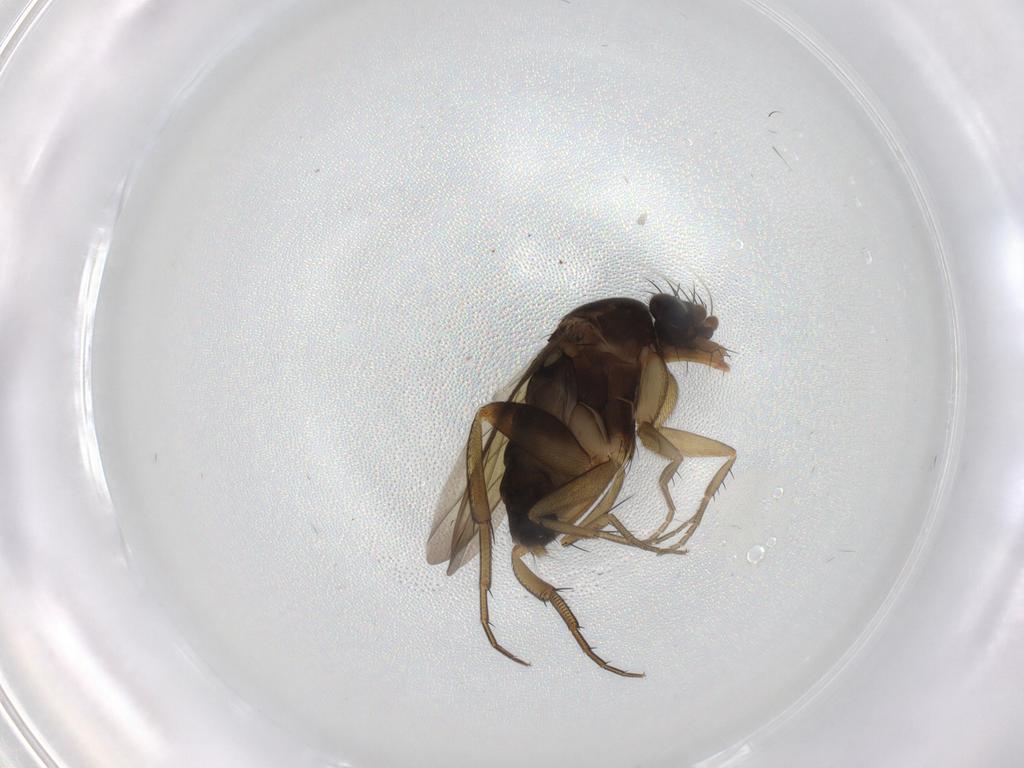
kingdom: Animalia
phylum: Arthropoda
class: Insecta
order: Diptera
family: Phoridae
